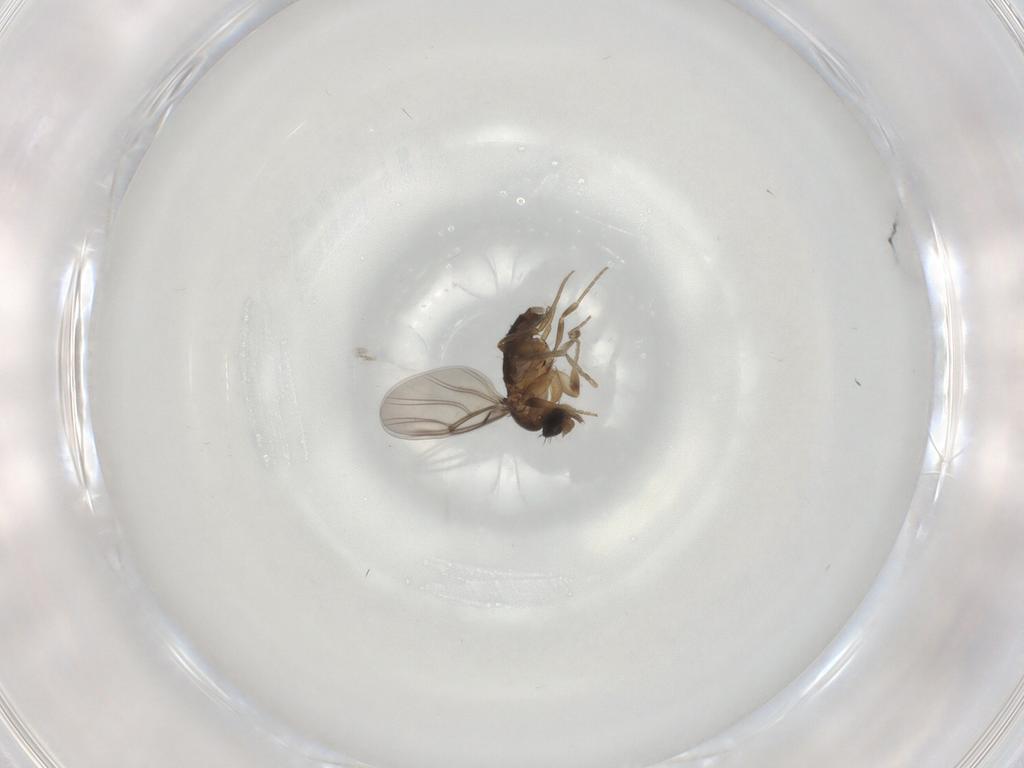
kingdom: Animalia
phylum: Arthropoda
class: Insecta
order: Diptera
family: Phoridae
